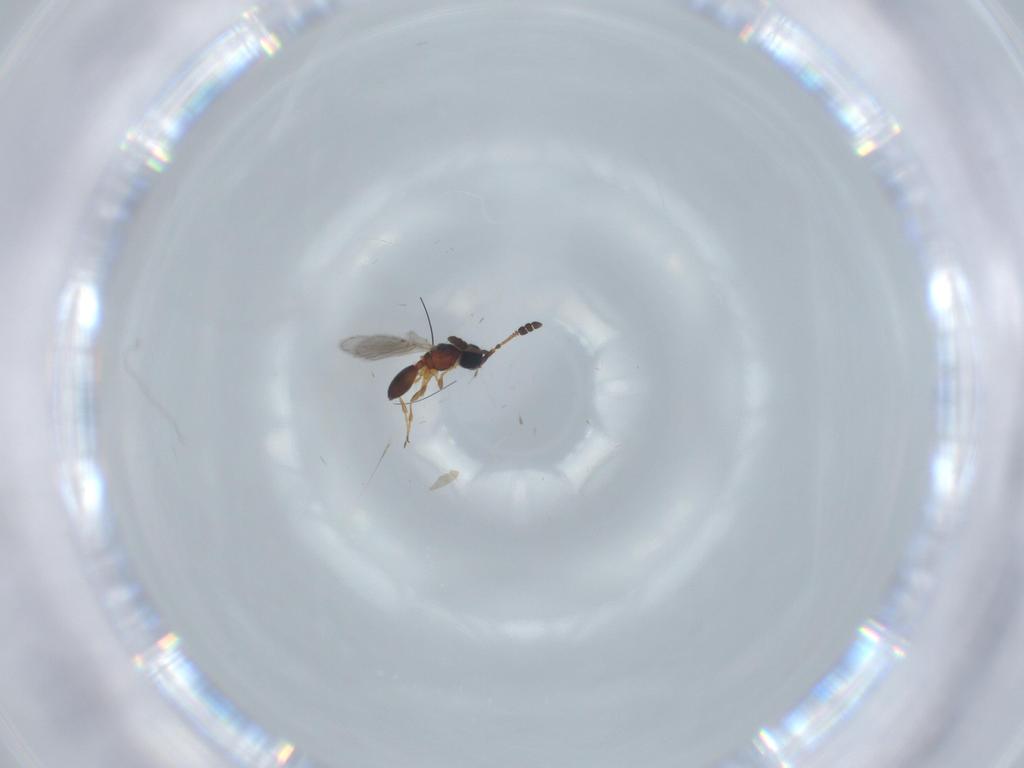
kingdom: Animalia
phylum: Arthropoda
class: Insecta
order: Hymenoptera
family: Diapriidae
